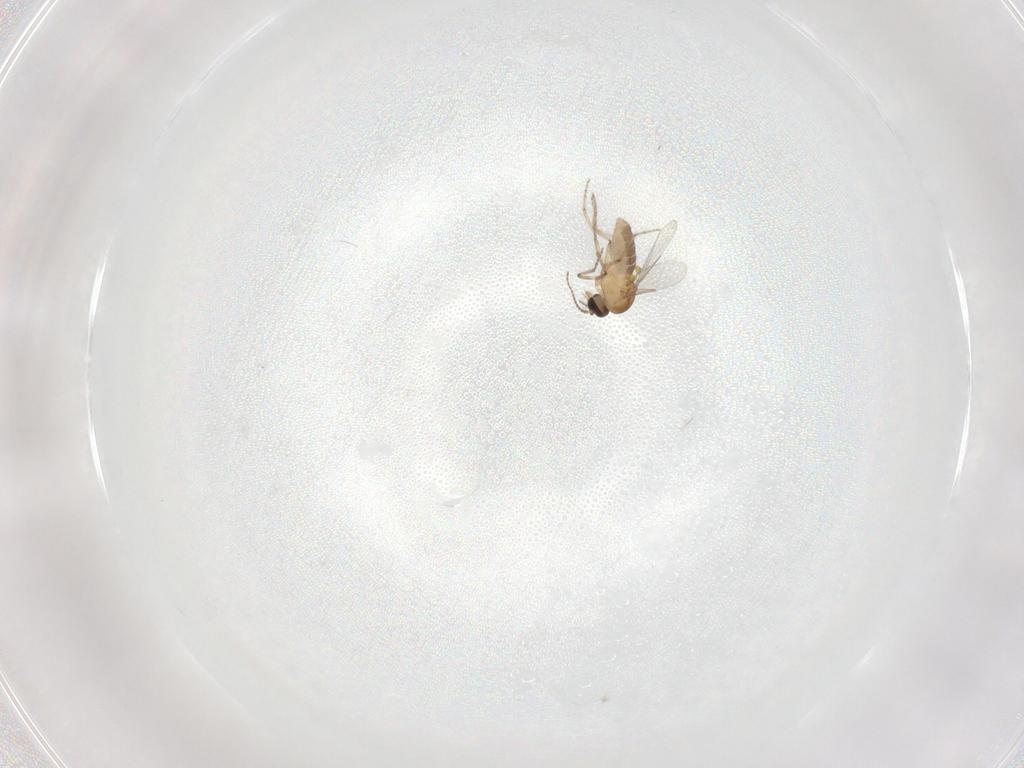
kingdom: Animalia
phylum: Arthropoda
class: Insecta
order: Diptera
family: Ceratopogonidae
